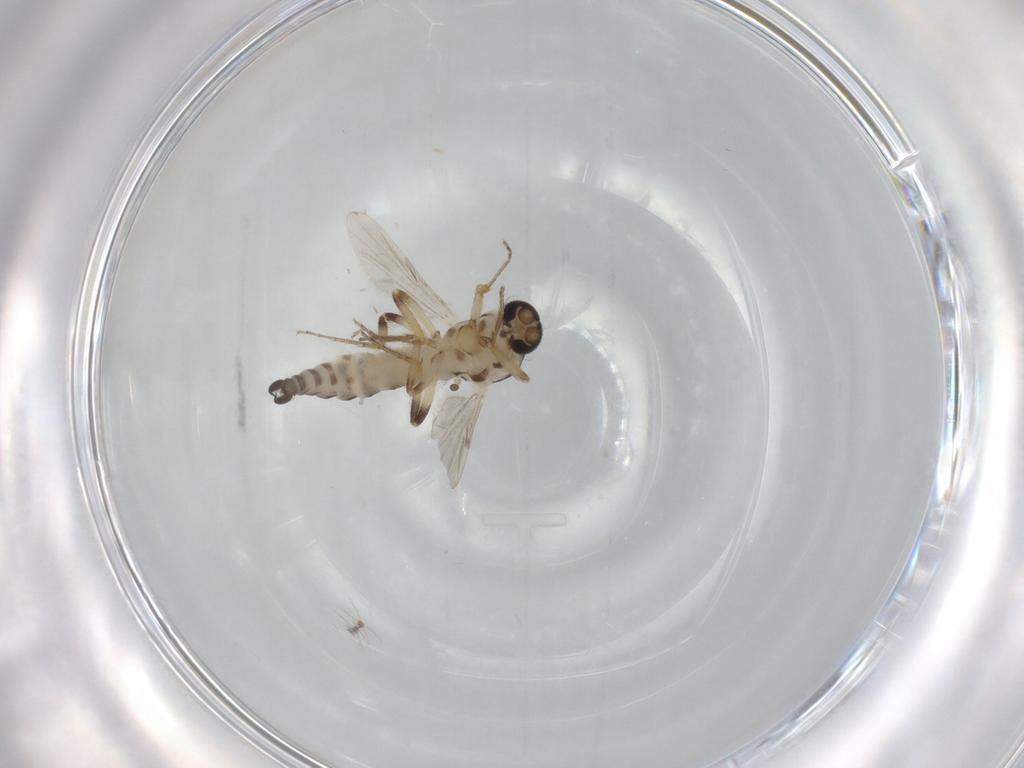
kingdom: Animalia
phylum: Arthropoda
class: Insecta
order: Diptera
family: Ceratopogonidae
